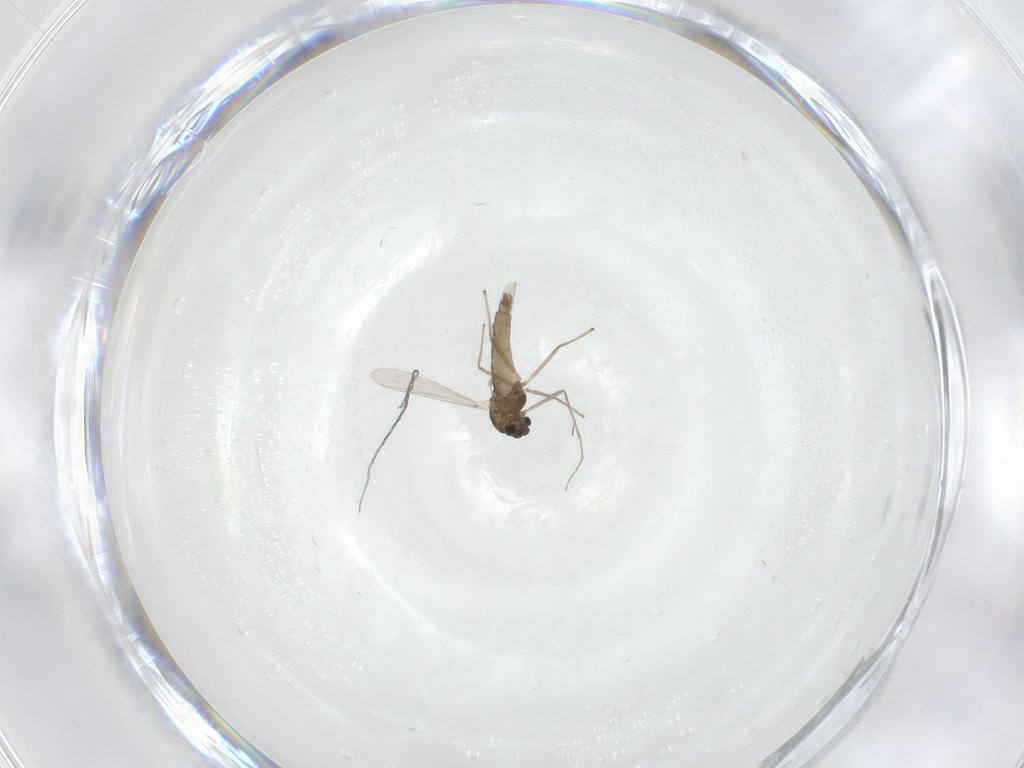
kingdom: Animalia
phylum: Arthropoda
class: Insecta
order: Diptera
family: Chironomidae
